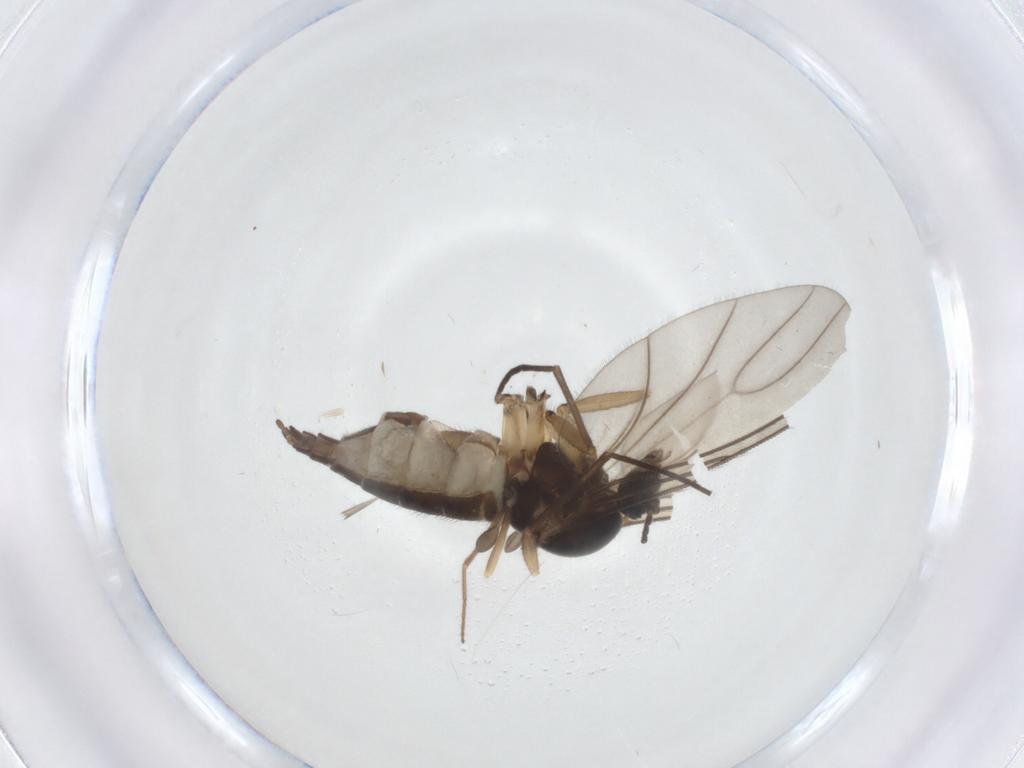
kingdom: Animalia
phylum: Arthropoda
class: Insecta
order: Diptera
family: Sciaridae
